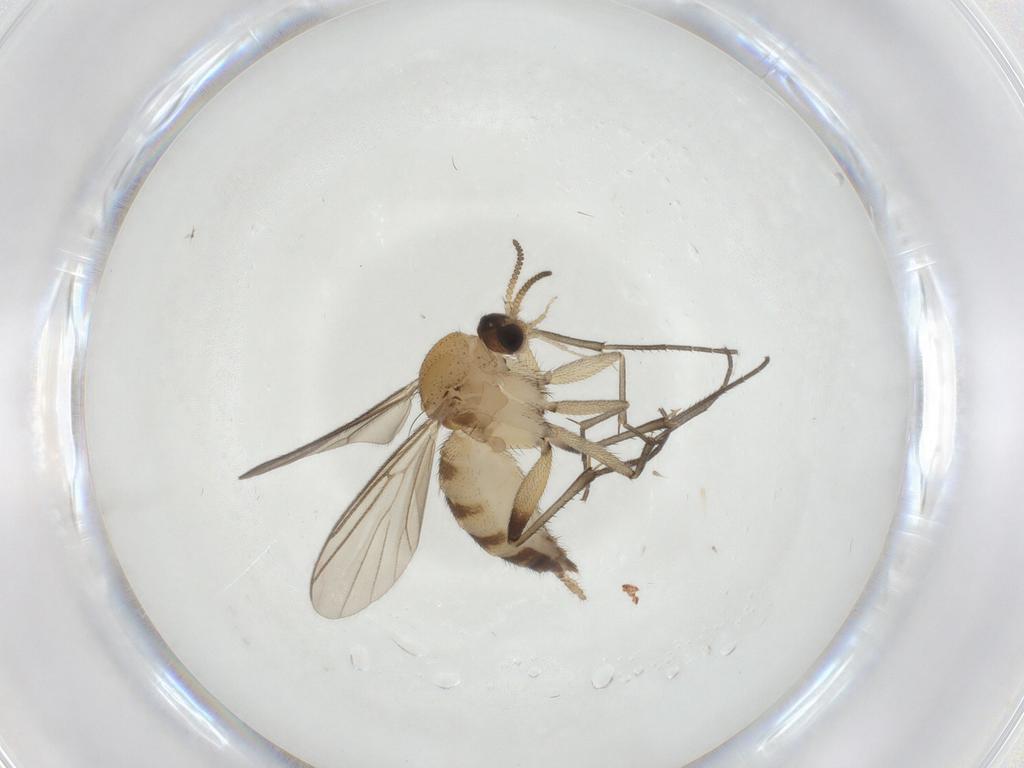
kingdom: Animalia
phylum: Arthropoda
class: Insecta
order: Diptera
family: Cecidomyiidae
